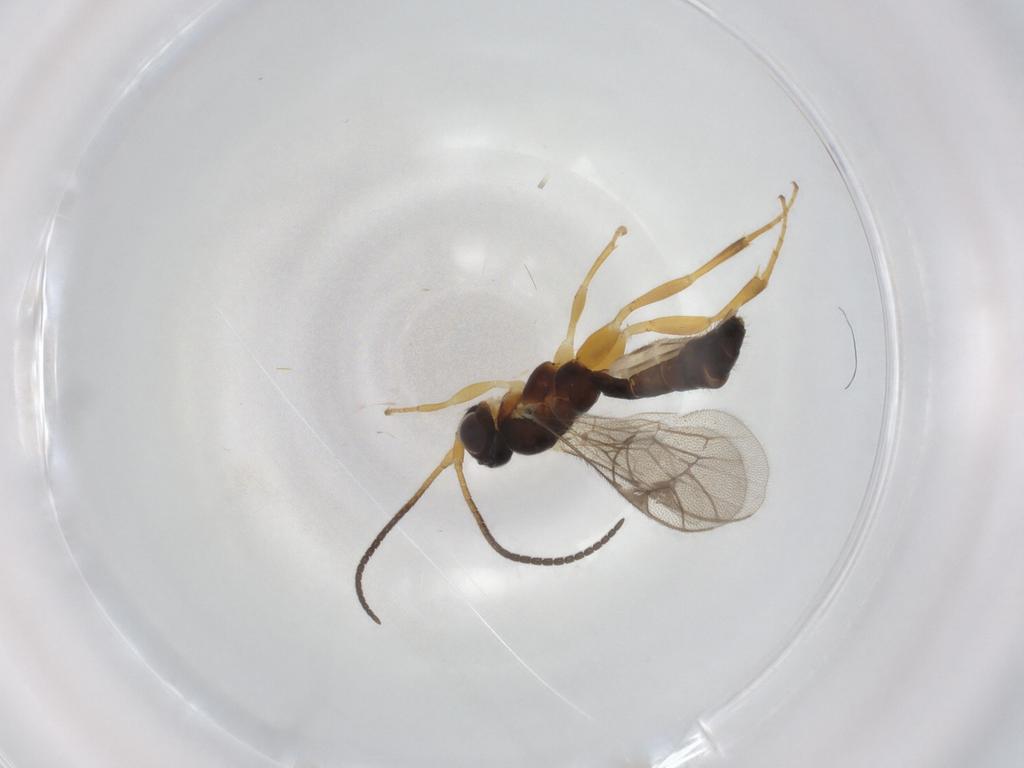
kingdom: Animalia
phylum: Arthropoda
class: Insecta
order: Hymenoptera
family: Ichneumonidae
